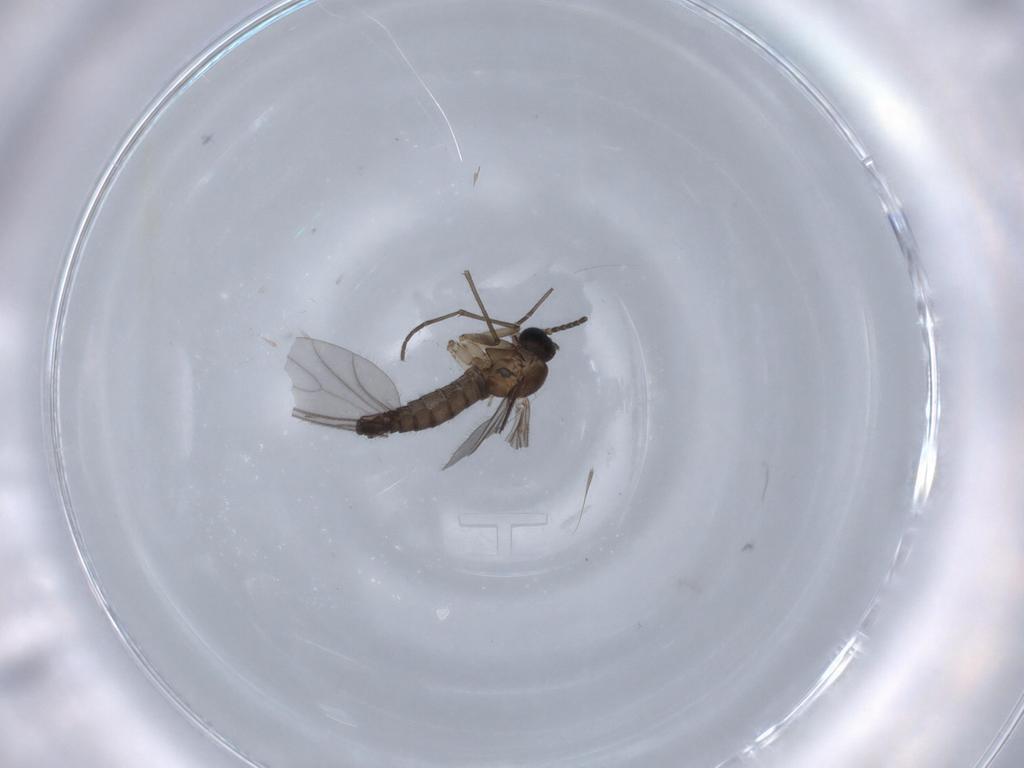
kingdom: Animalia
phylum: Arthropoda
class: Insecta
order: Diptera
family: Sciaridae
